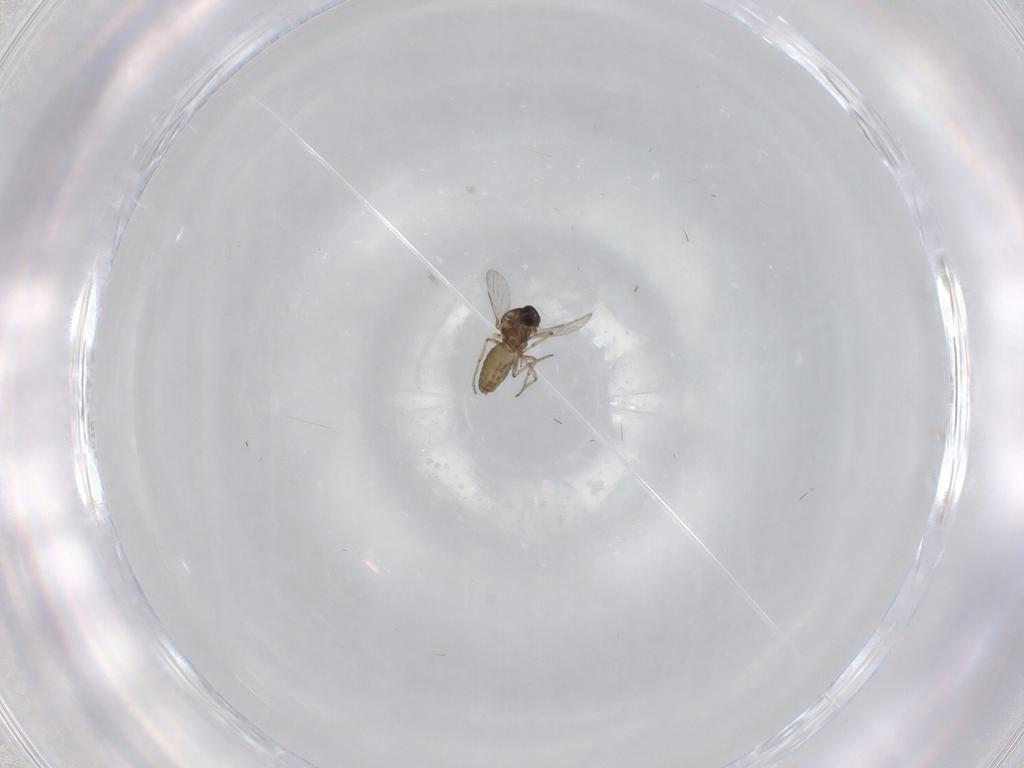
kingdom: Animalia
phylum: Arthropoda
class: Insecta
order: Diptera
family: Ceratopogonidae
